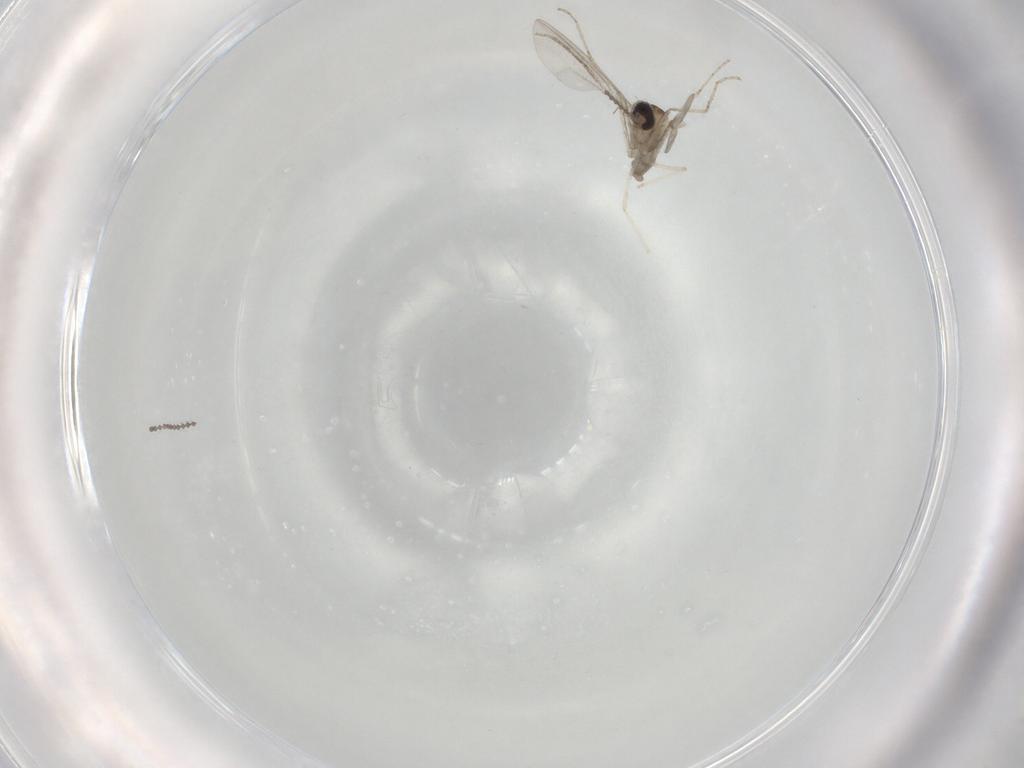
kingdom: Animalia
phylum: Arthropoda
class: Insecta
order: Diptera
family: Cecidomyiidae
